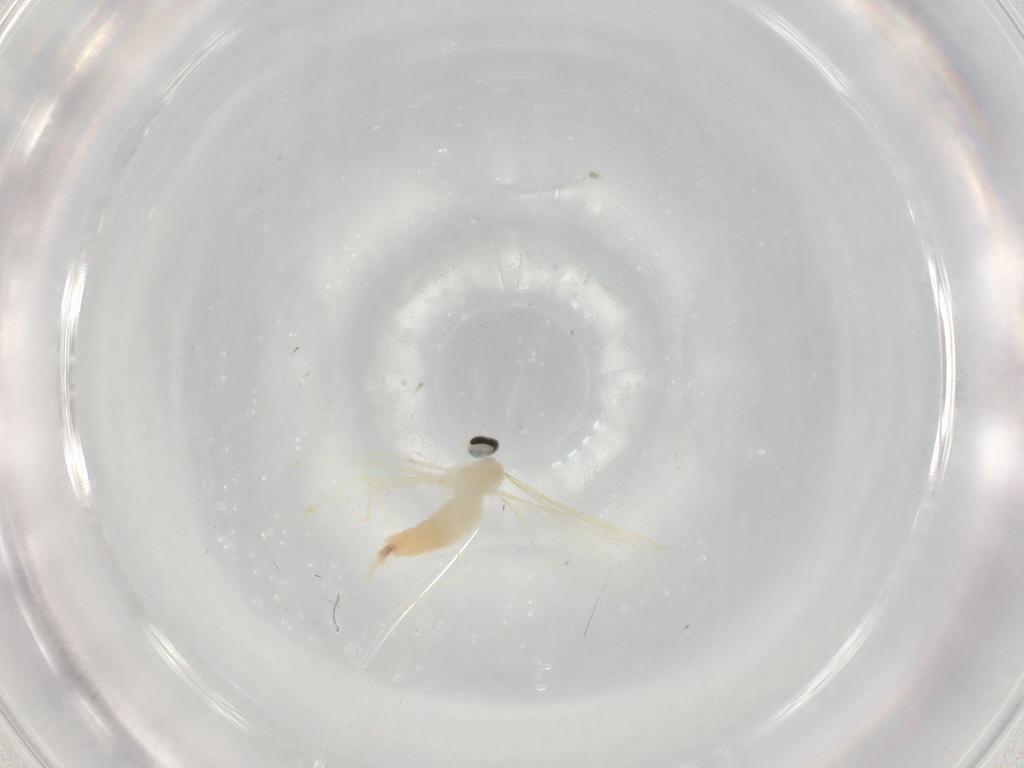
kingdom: Animalia
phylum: Arthropoda
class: Insecta
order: Diptera
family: Cecidomyiidae
